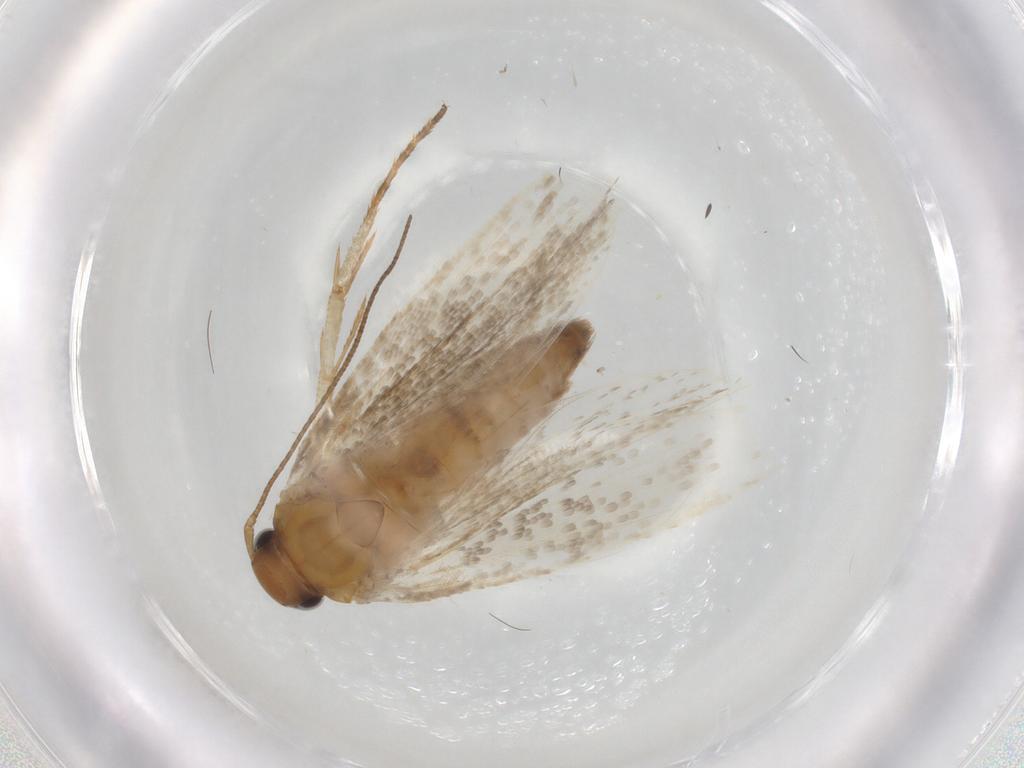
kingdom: Animalia
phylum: Arthropoda
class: Insecta
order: Lepidoptera
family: Gelechiidae
